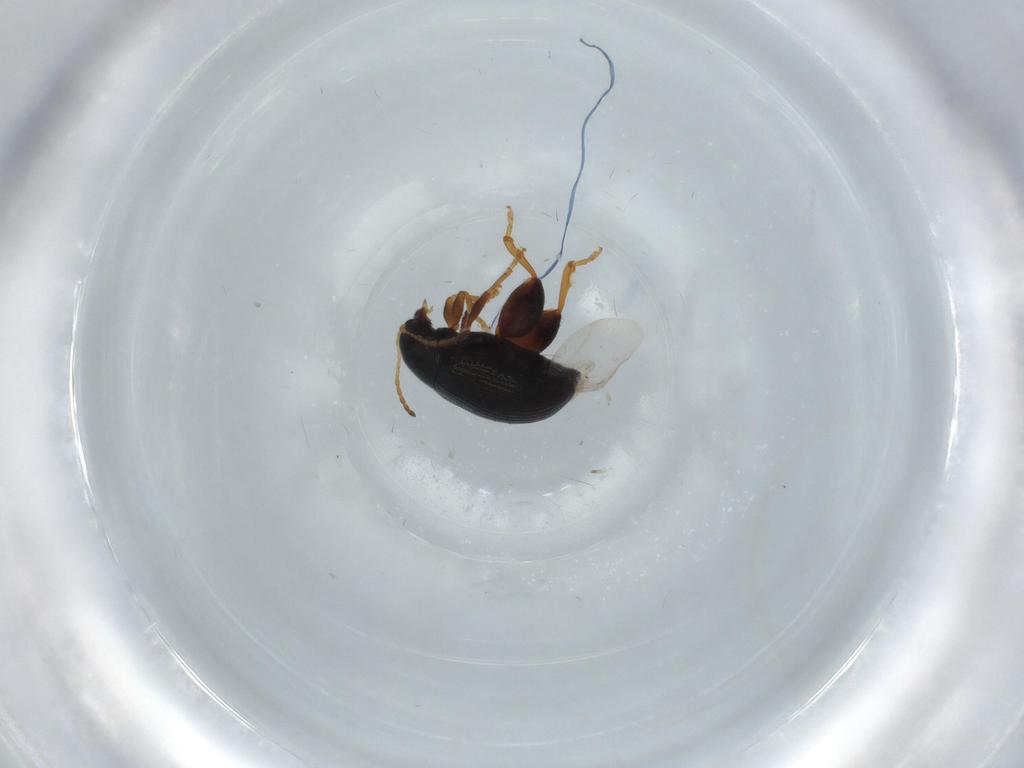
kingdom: Animalia
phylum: Arthropoda
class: Insecta
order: Coleoptera
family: Chrysomelidae
